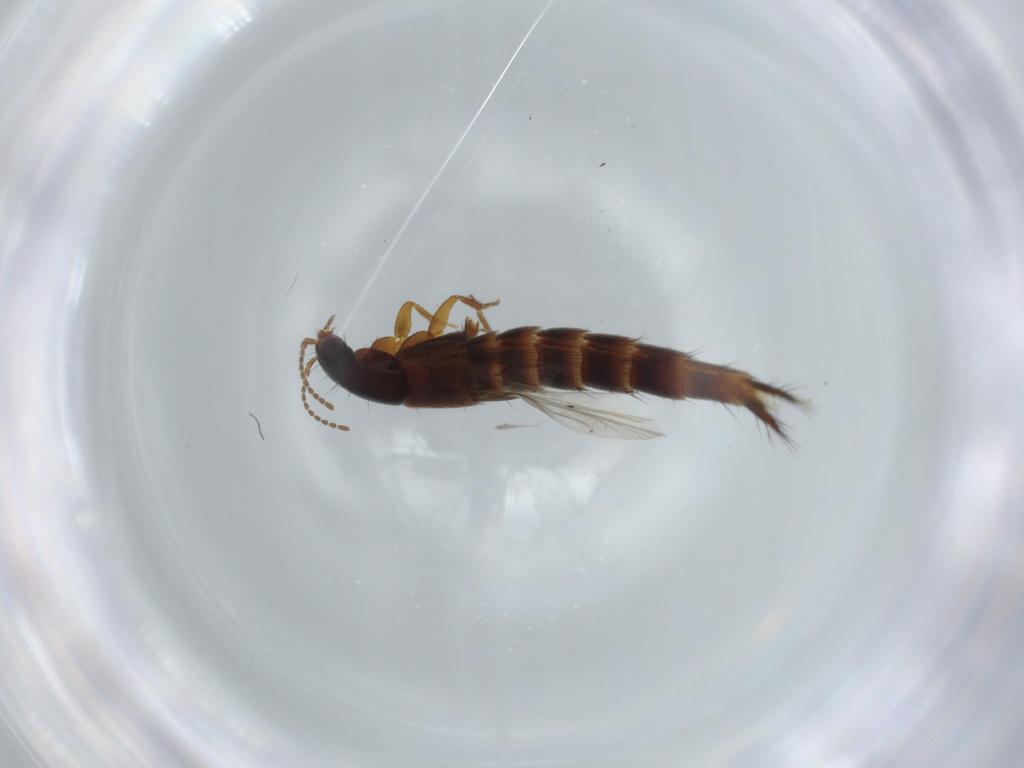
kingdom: Animalia
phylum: Arthropoda
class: Insecta
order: Coleoptera
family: Staphylinidae
